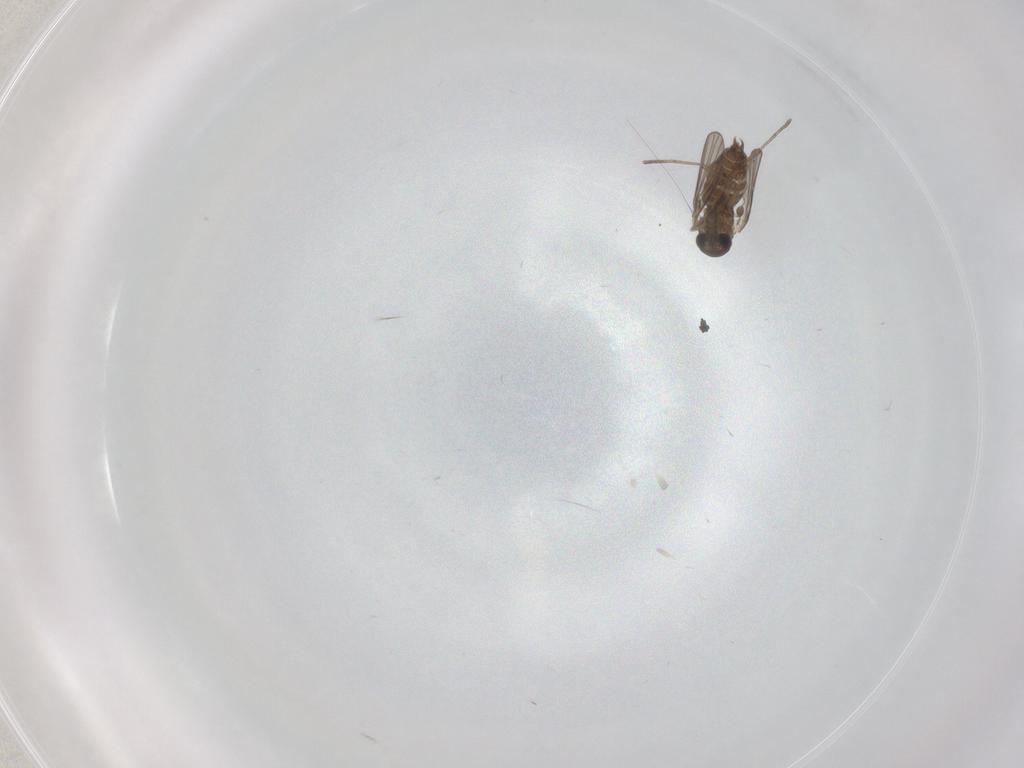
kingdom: Animalia
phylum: Arthropoda
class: Insecta
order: Diptera
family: Cecidomyiidae
